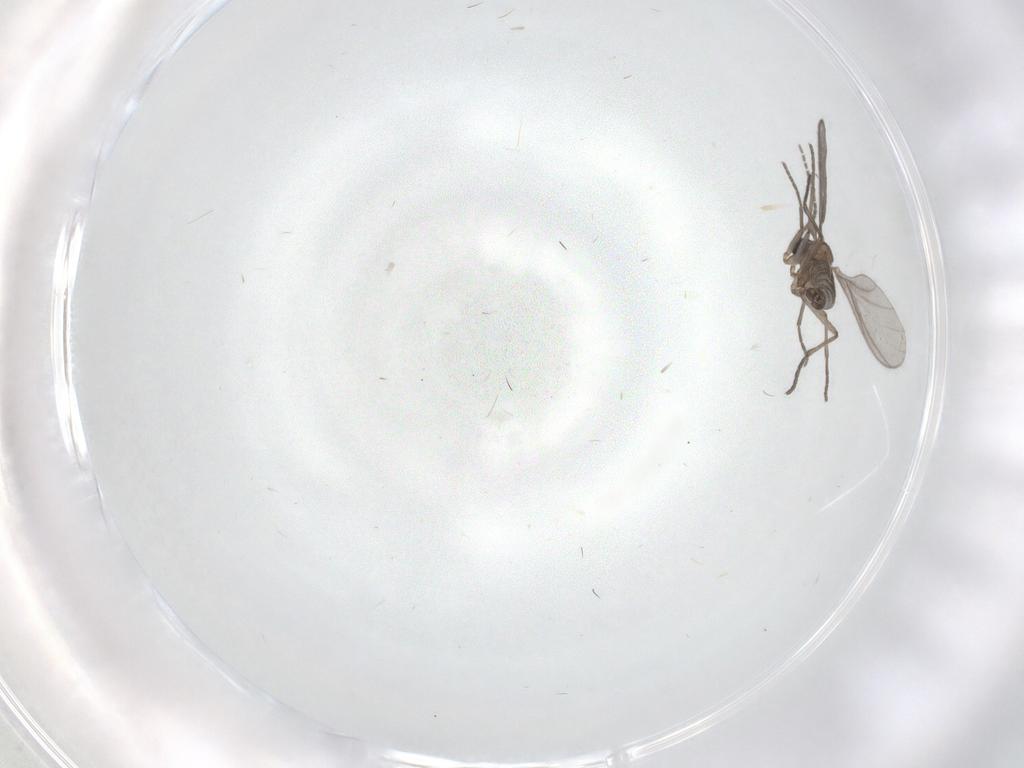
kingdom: Animalia
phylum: Arthropoda
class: Insecta
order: Diptera
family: Sciaridae
